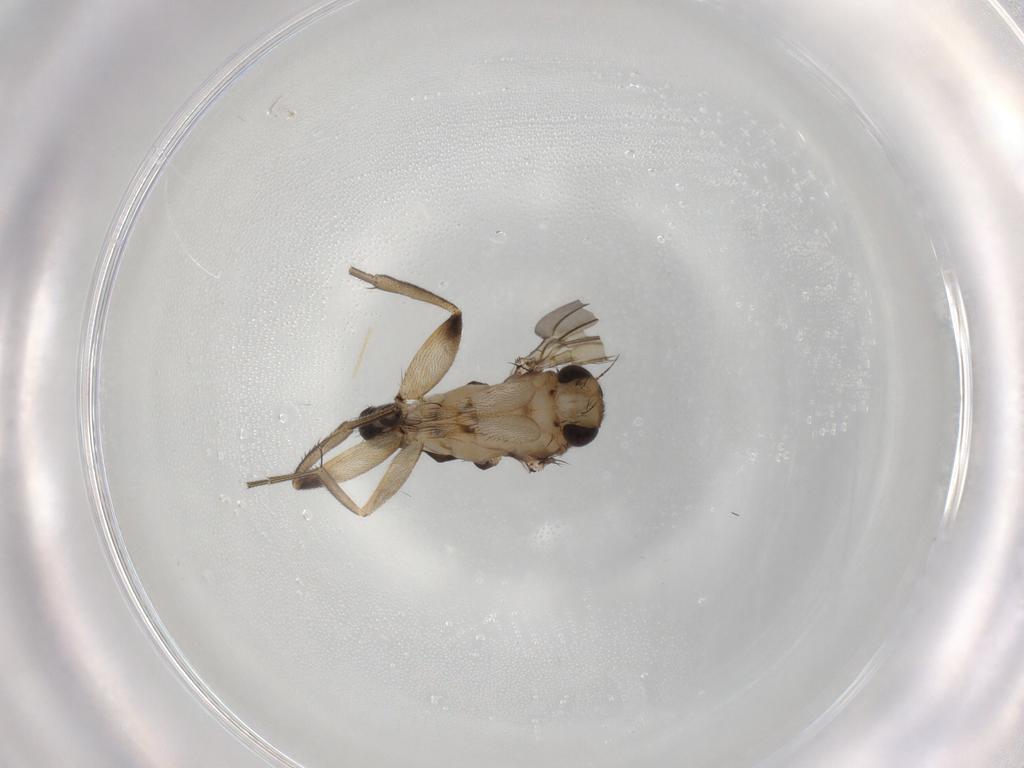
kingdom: Animalia
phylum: Arthropoda
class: Insecta
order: Diptera
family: Phoridae
